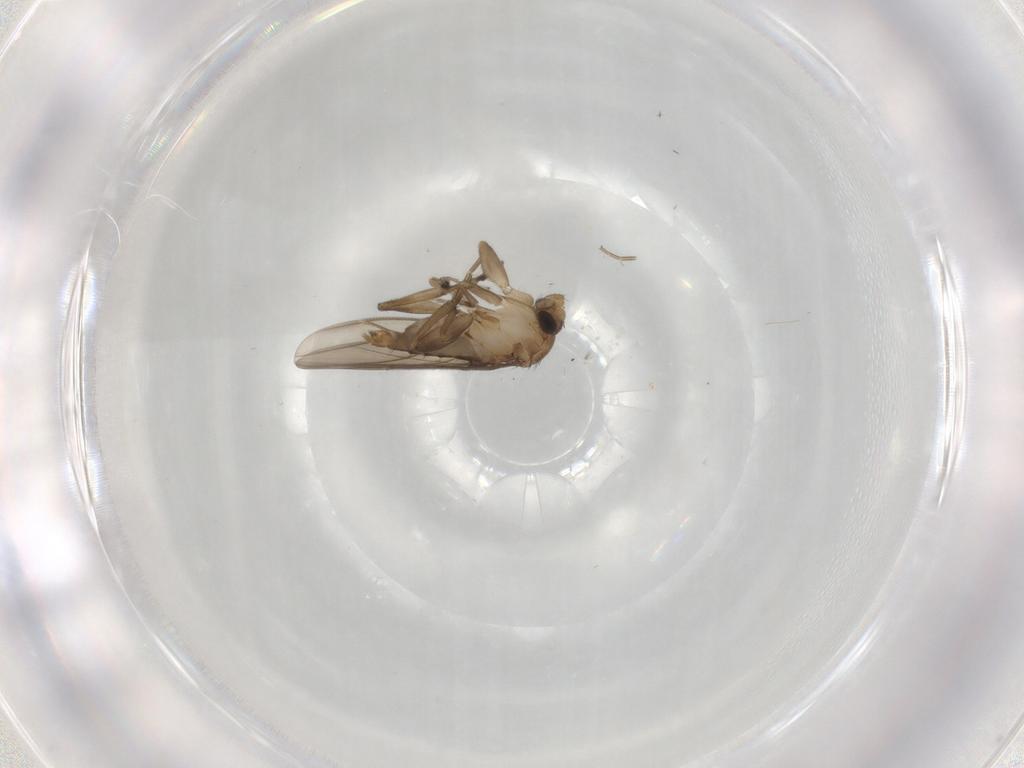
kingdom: Animalia
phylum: Arthropoda
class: Insecta
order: Diptera
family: Phoridae
